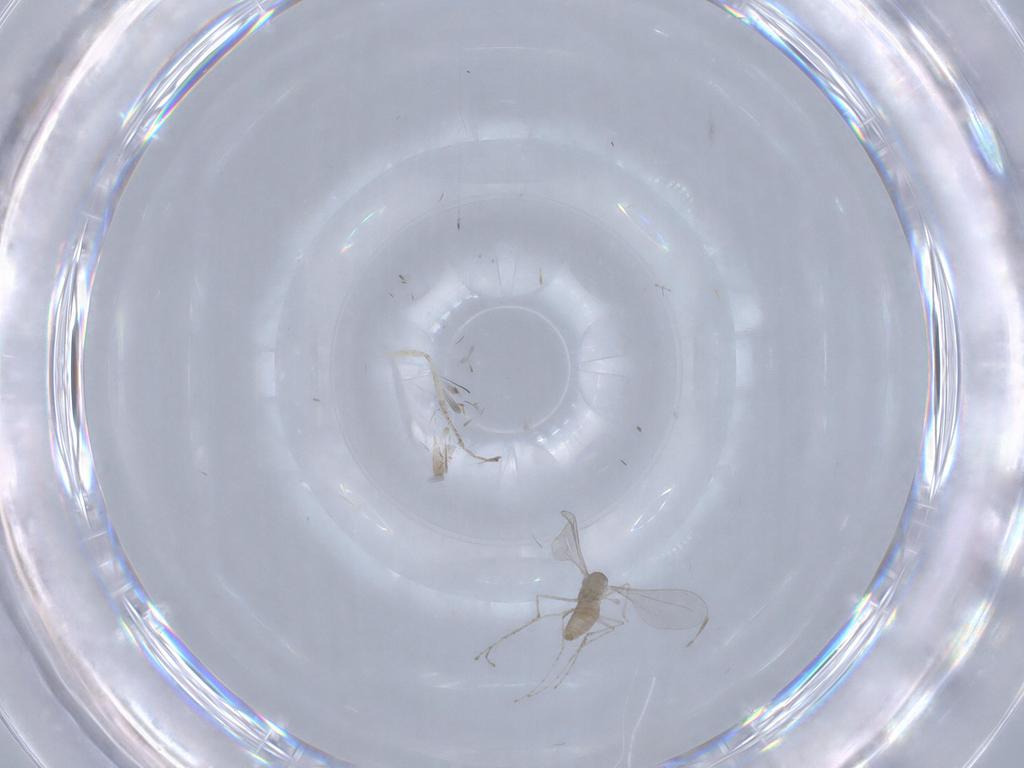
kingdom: Animalia
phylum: Arthropoda
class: Insecta
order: Diptera
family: Cecidomyiidae
